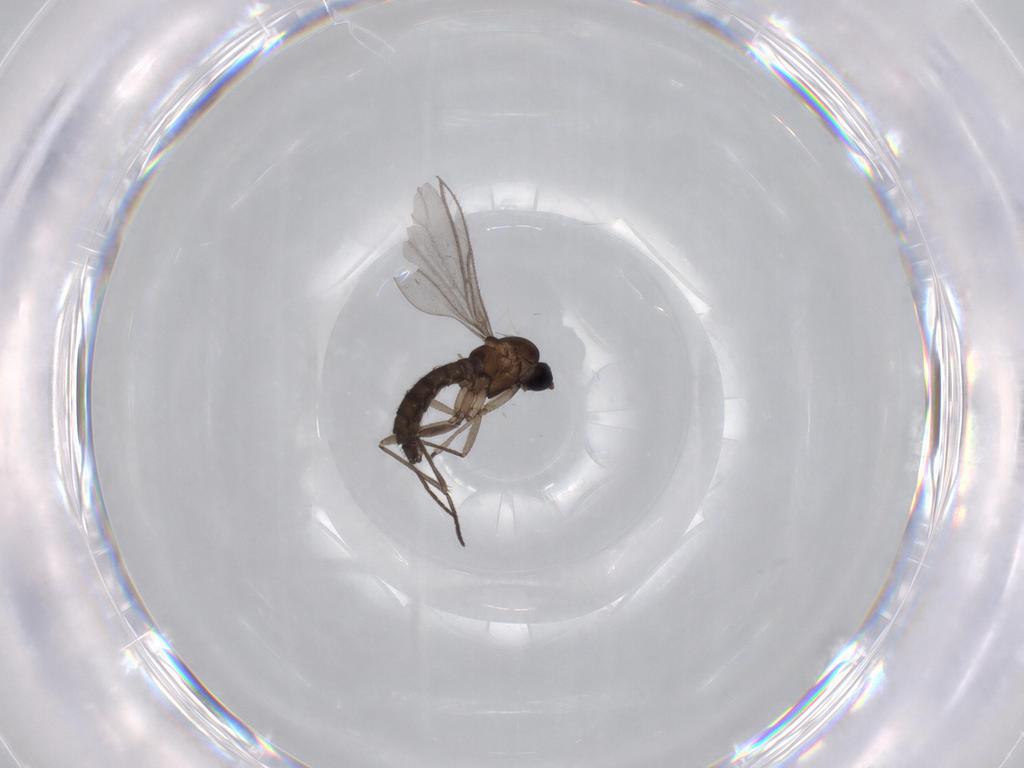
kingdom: Animalia
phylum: Arthropoda
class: Insecta
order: Diptera
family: Sciaridae
